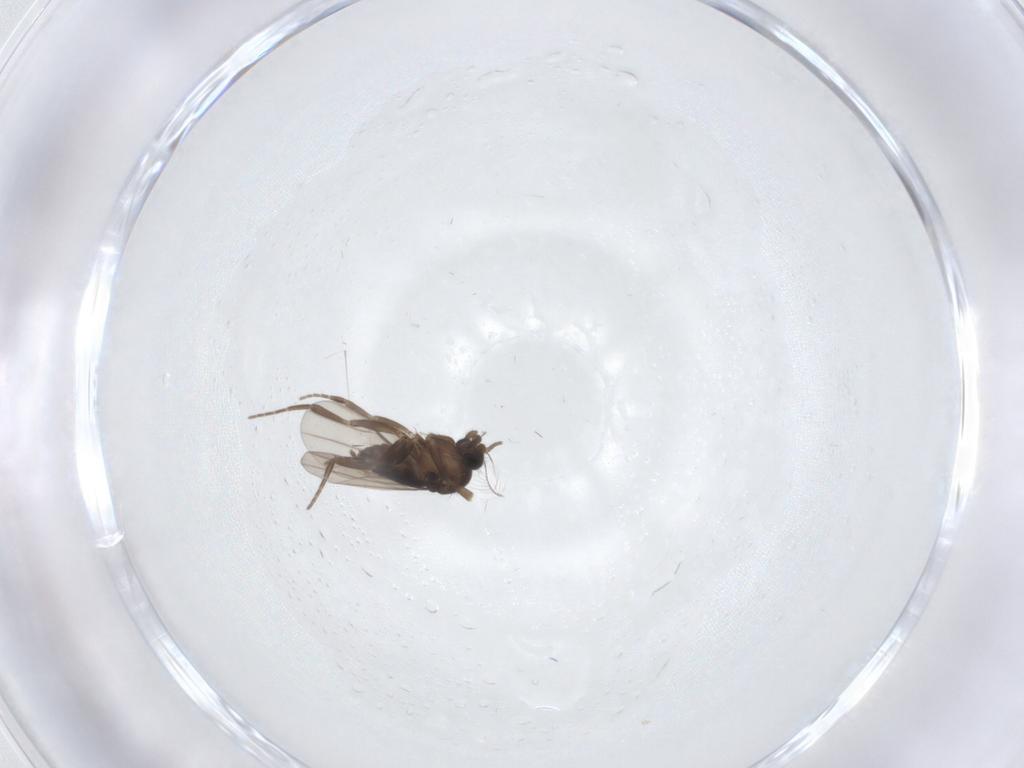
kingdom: Animalia
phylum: Arthropoda
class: Insecta
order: Diptera
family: Phoridae
